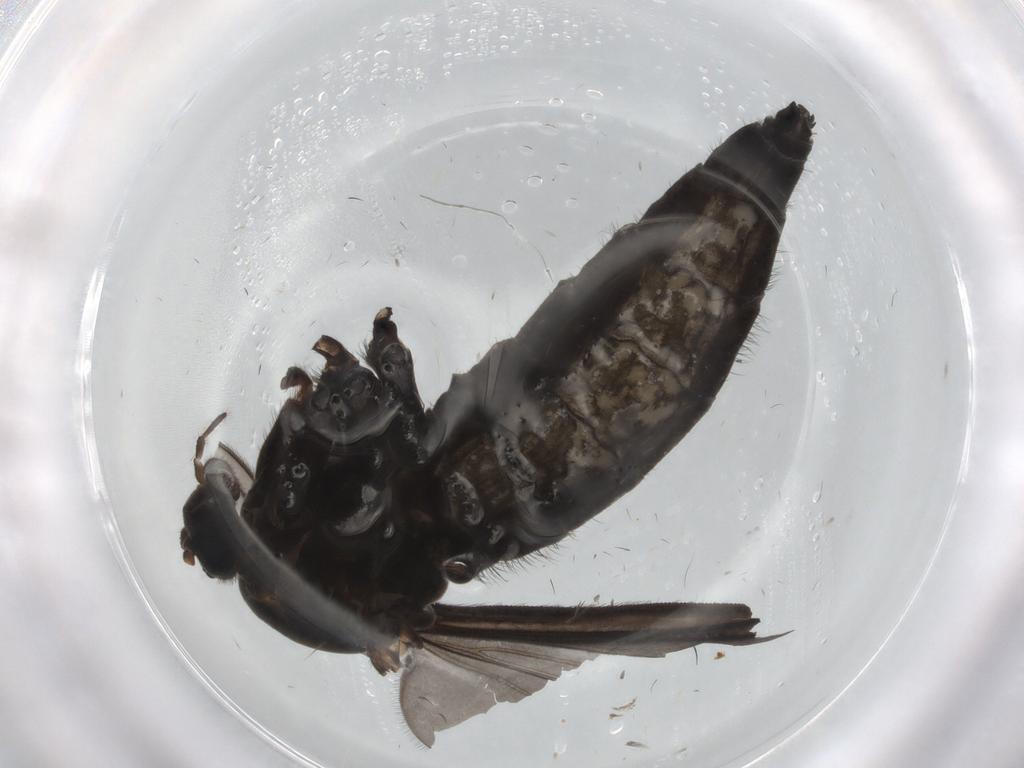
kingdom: Animalia
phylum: Arthropoda
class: Insecta
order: Diptera
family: Sciaridae
